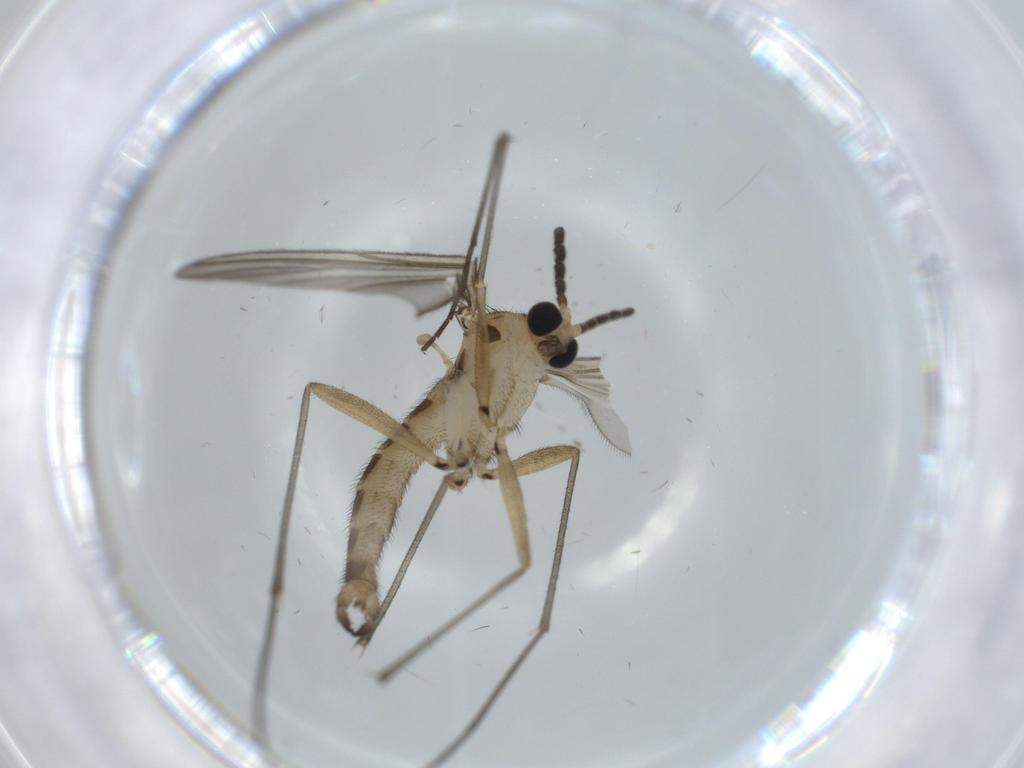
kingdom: Animalia
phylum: Arthropoda
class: Insecta
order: Diptera
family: Sciaridae
